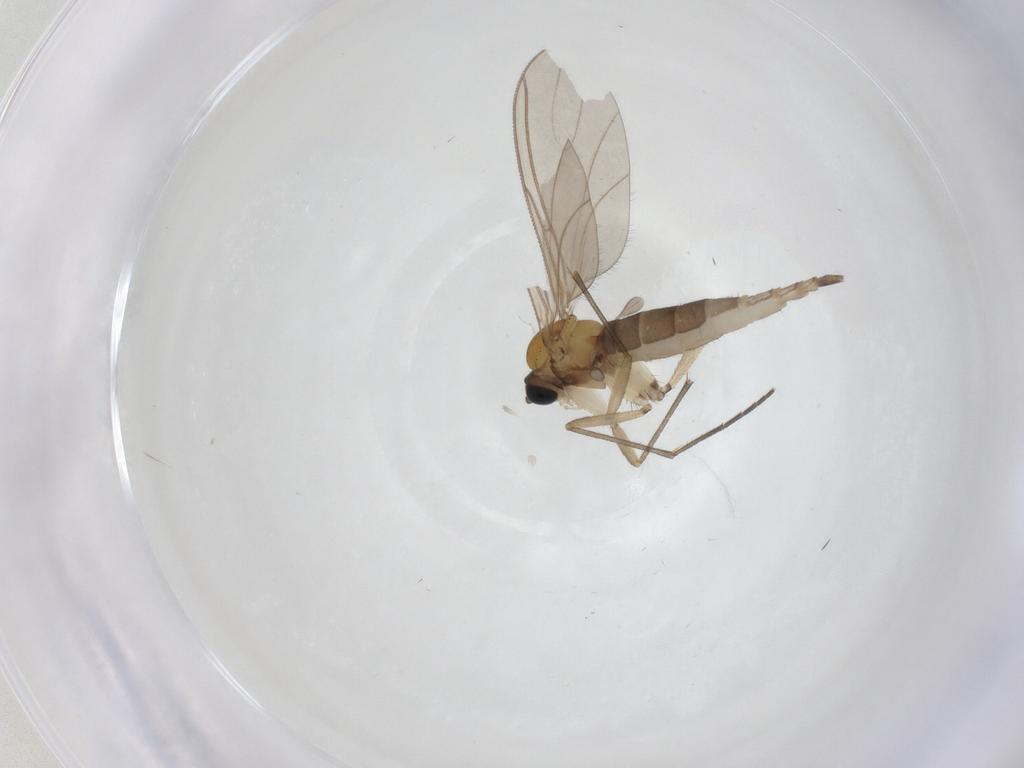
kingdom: Animalia
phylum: Arthropoda
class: Insecta
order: Diptera
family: Sciaridae
